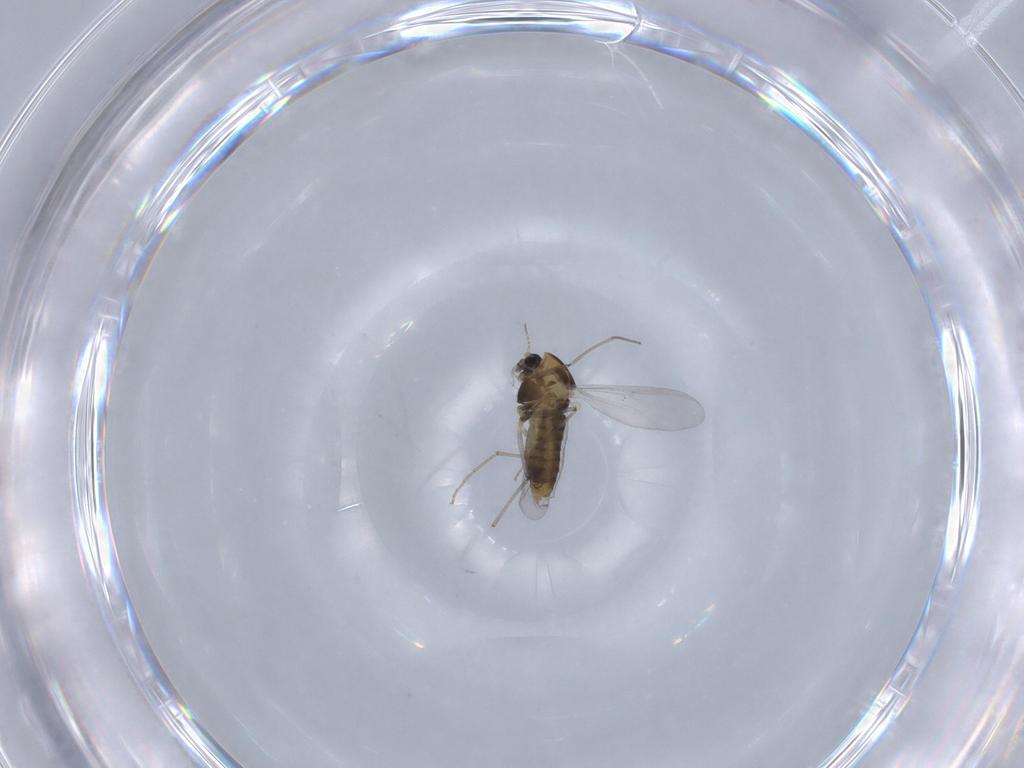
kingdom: Animalia
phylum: Arthropoda
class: Insecta
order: Diptera
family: Chironomidae
